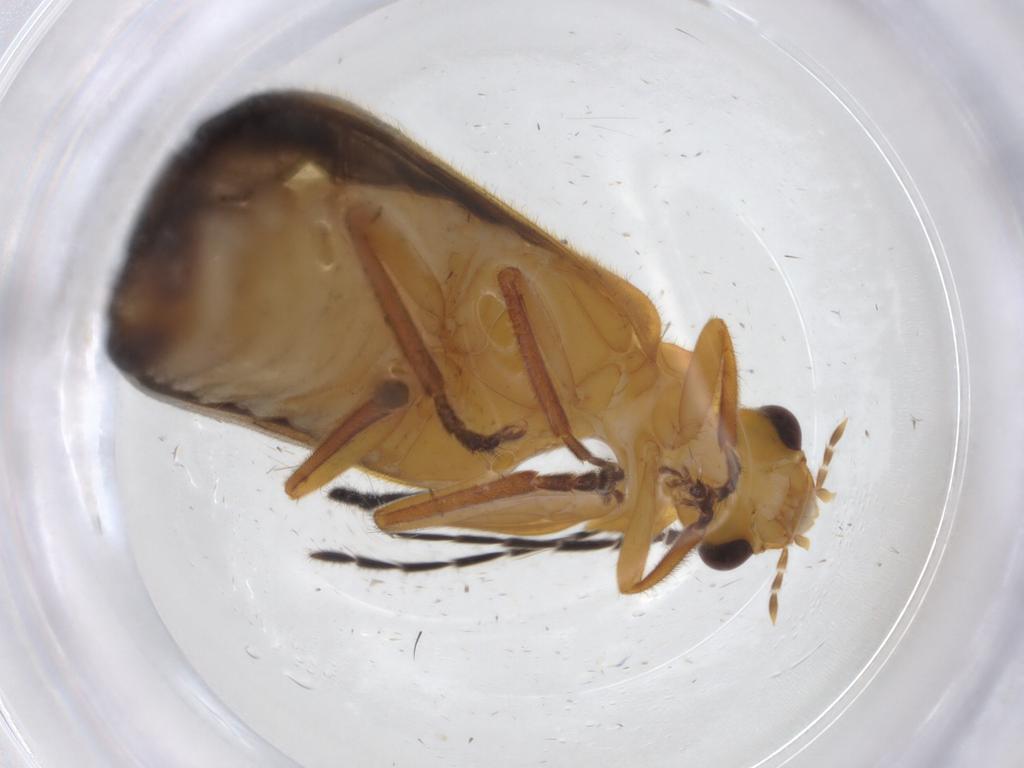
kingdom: Animalia
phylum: Arthropoda
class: Insecta
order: Coleoptera
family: Cantharidae
